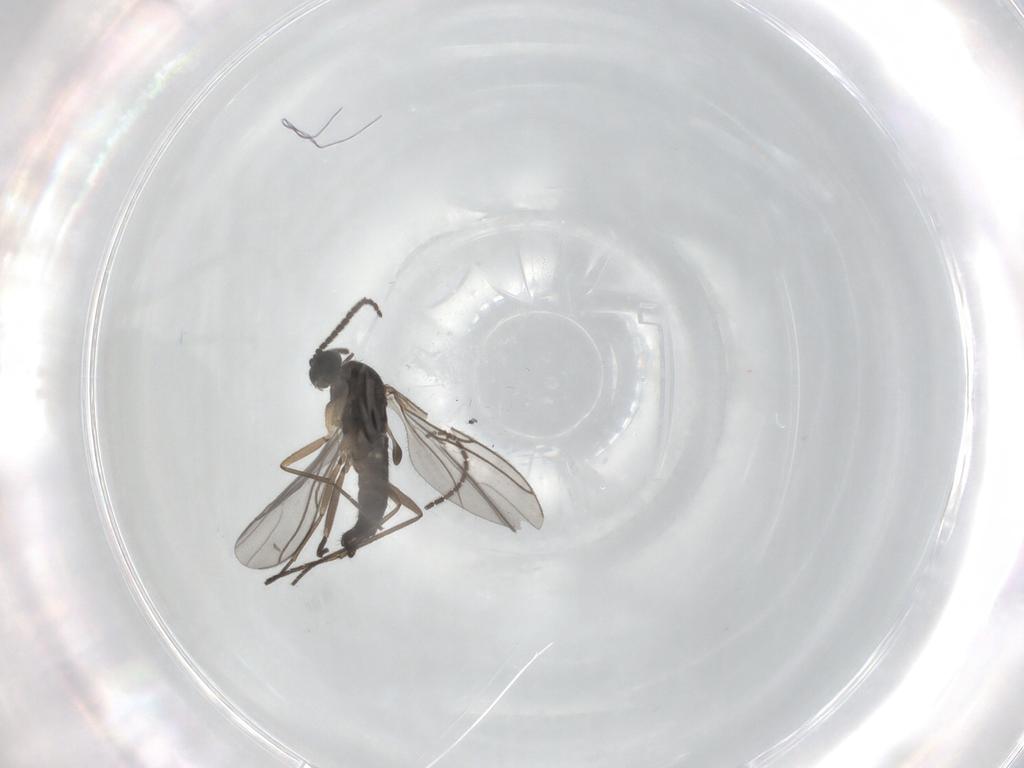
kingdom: Animalia
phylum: Arthropoda
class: Insecta
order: Diptera
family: Sciaridae
